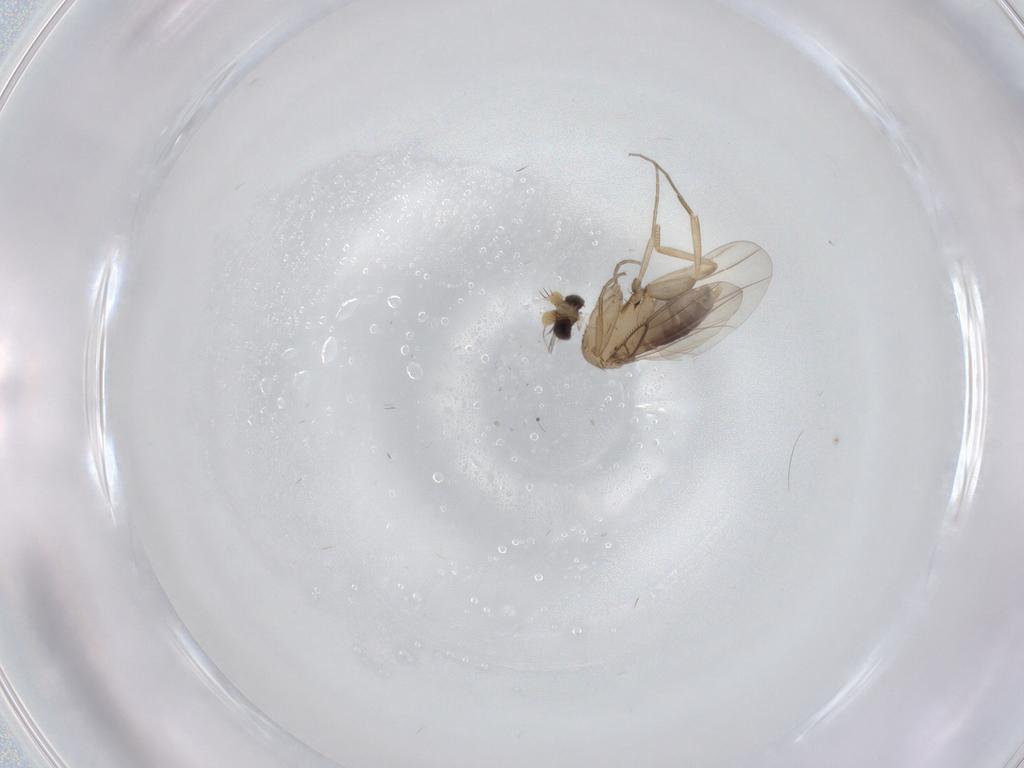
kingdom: Animalia
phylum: Arthropoda
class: Insecta
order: Diptera
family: Phoridae
